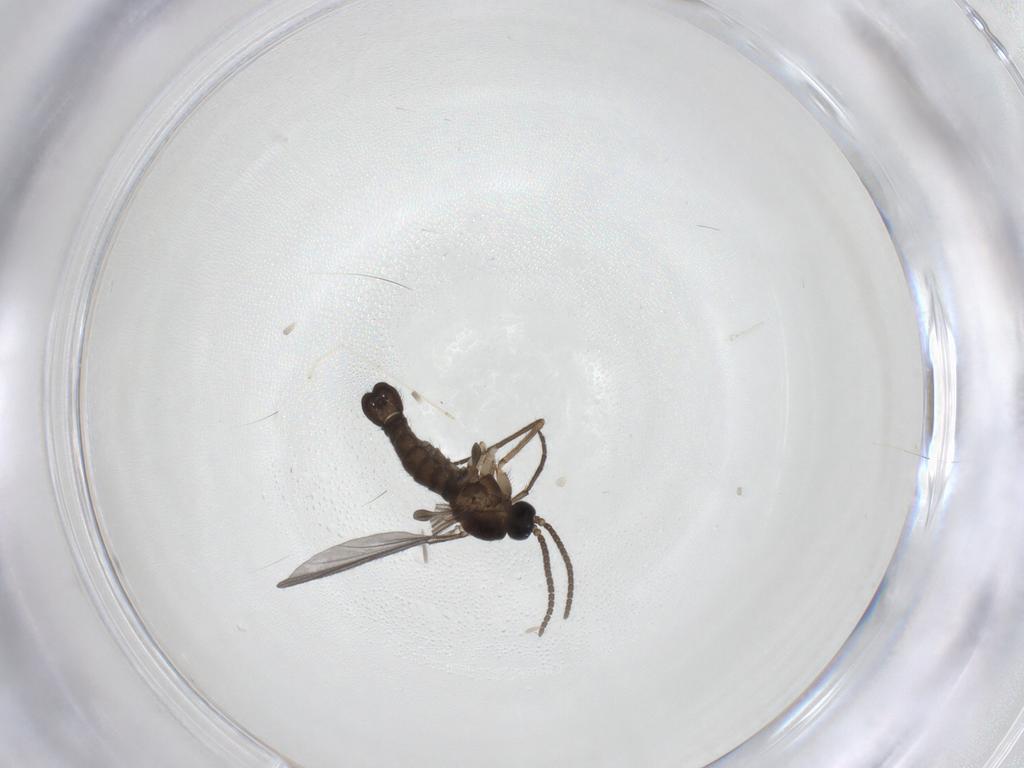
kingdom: Animalia
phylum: Arthropoda
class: Insecta
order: Diptera
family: Sciaridae
